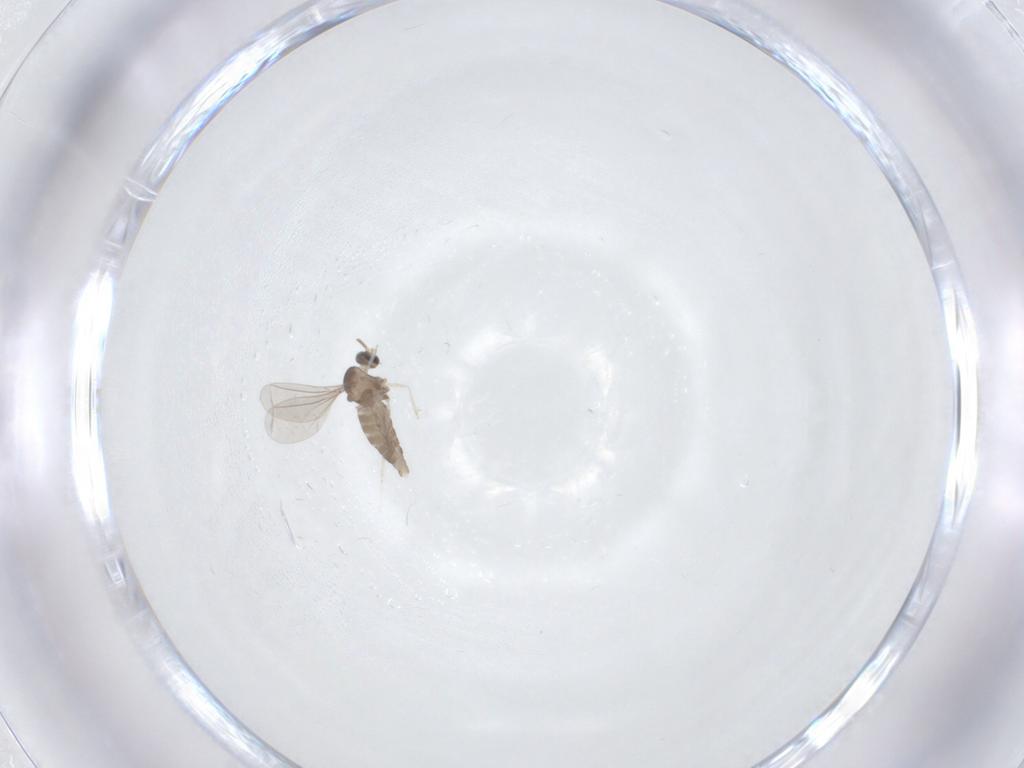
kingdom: Animalia
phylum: Arthropoda
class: Insecta
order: Diptera
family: Cecidomyiidae
